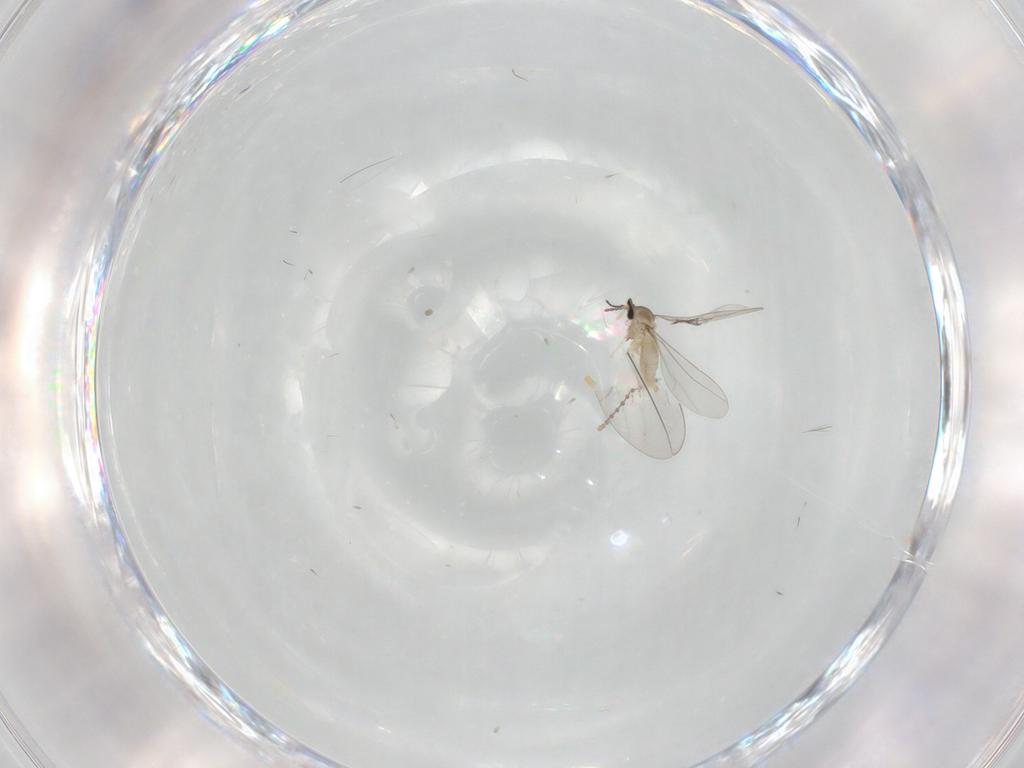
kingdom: Animalia
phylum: Arthropoda
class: Insecta
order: Diptera
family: Cecidomyiidae
